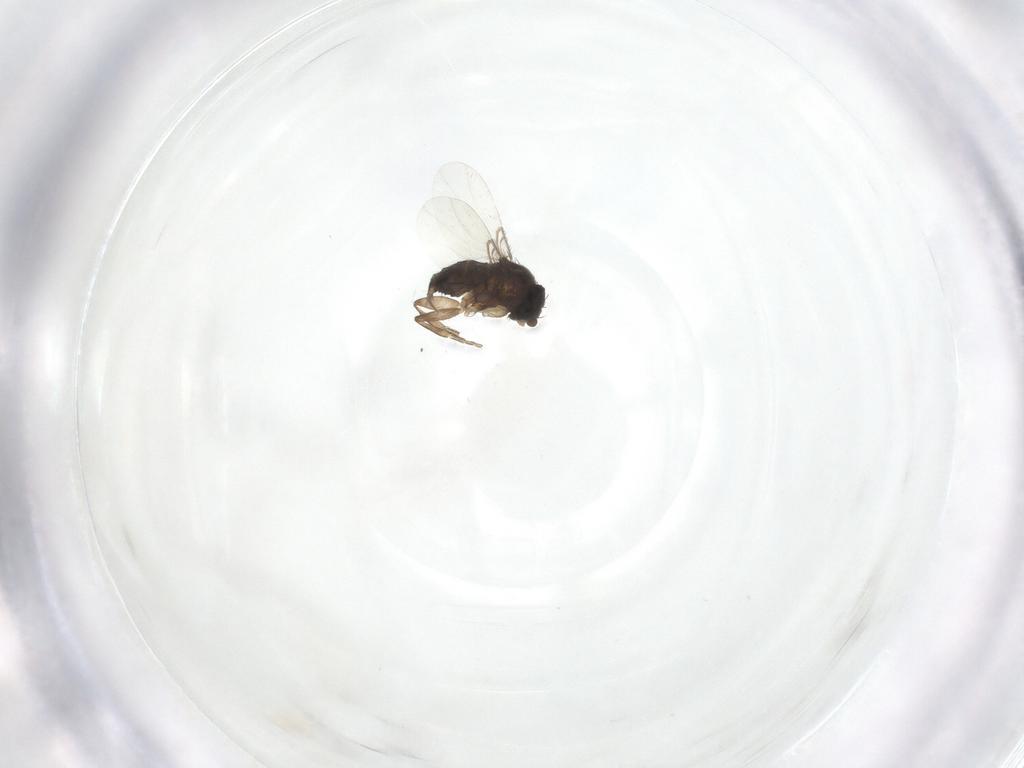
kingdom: Animalia
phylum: Arthropoda
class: Insecta
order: Diptera
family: Phoridae
